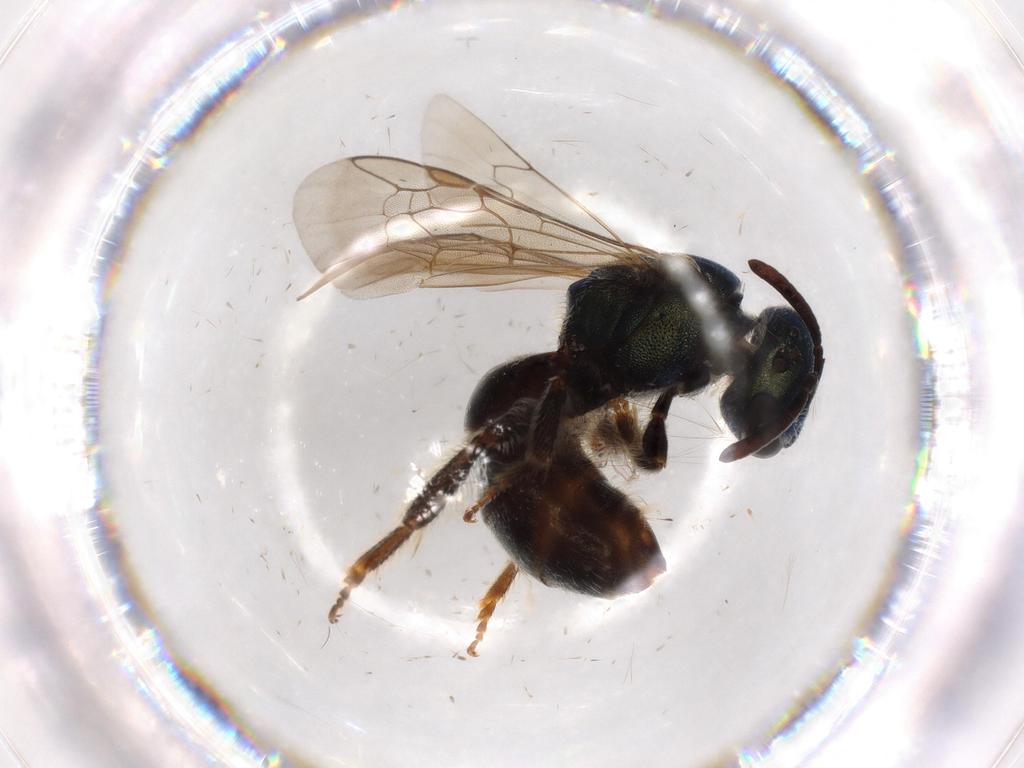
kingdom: Animalia
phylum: Arthropoda
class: Insecta
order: Hymenoptera
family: Halictidae
